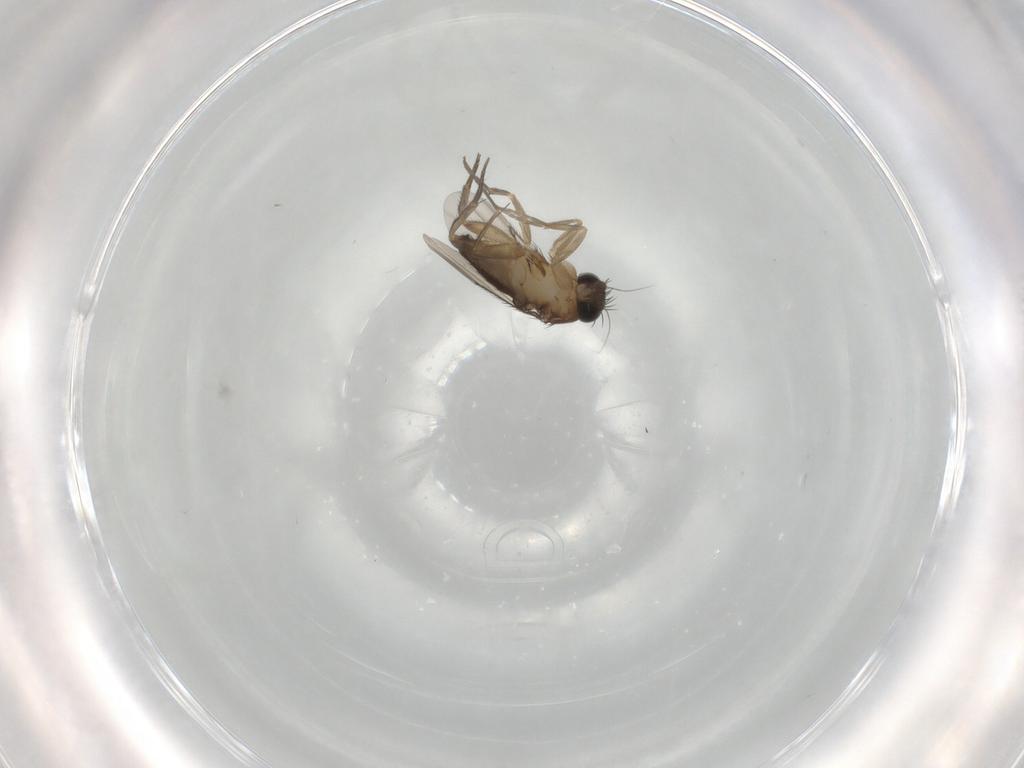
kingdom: Animalia
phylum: Arthropoda
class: Insecta
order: Diptera
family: Phoridae
